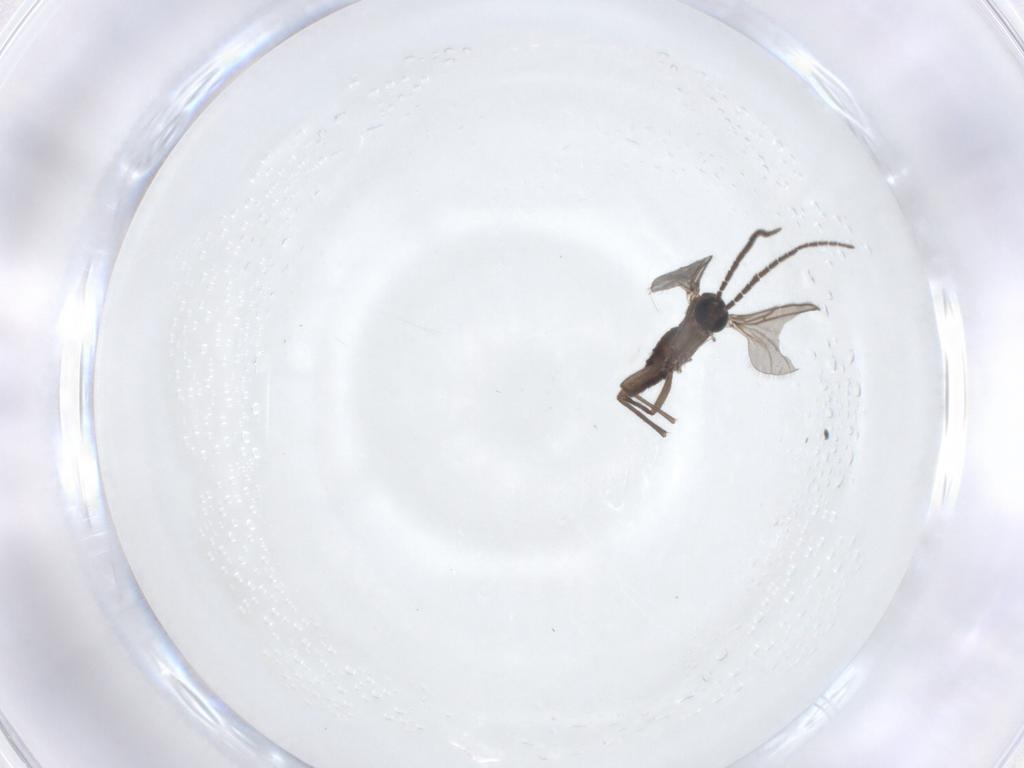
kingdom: Animalia
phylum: Arthropoda
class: Insecta
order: Diptera
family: Sciaridae
